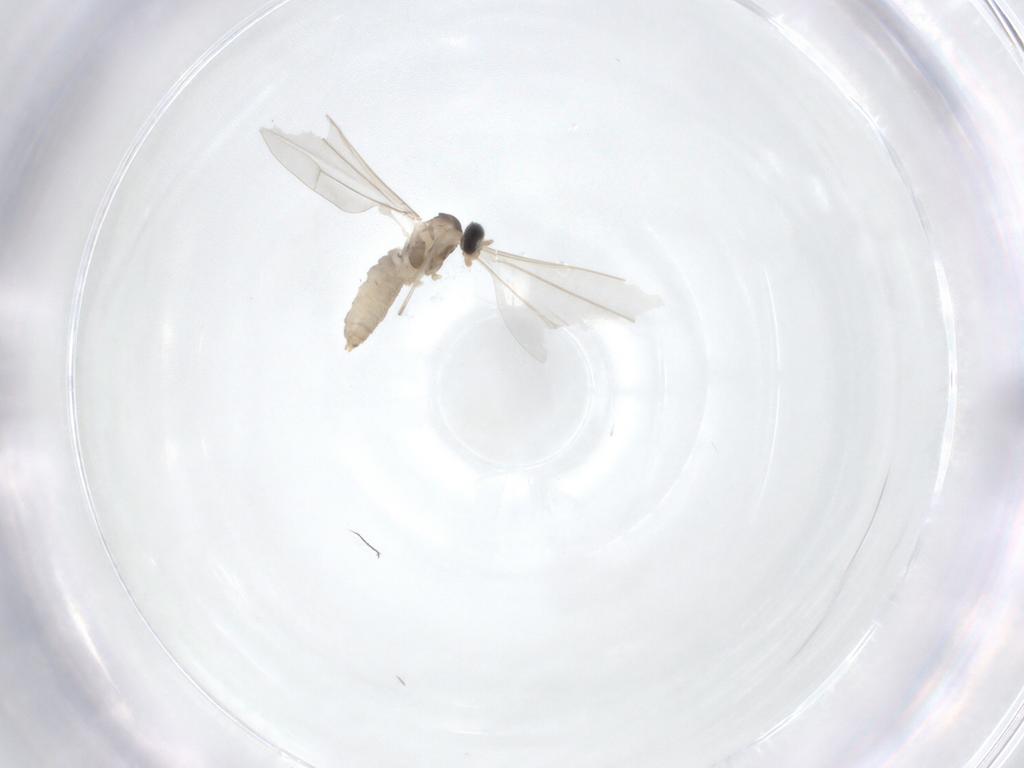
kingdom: Animalia
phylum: Arthropoda
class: Insecta
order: Diptera
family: Cecidomyiidae
